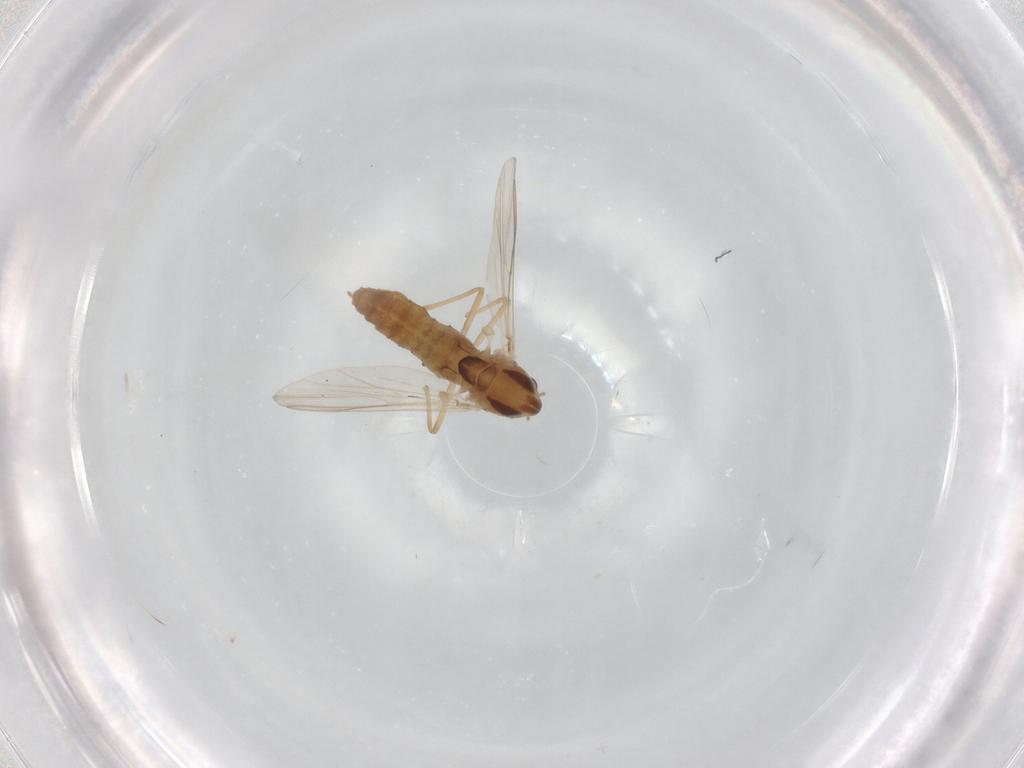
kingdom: Animalia
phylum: Arthropoda
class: Insecta
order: Diptera
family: Chironomidae
